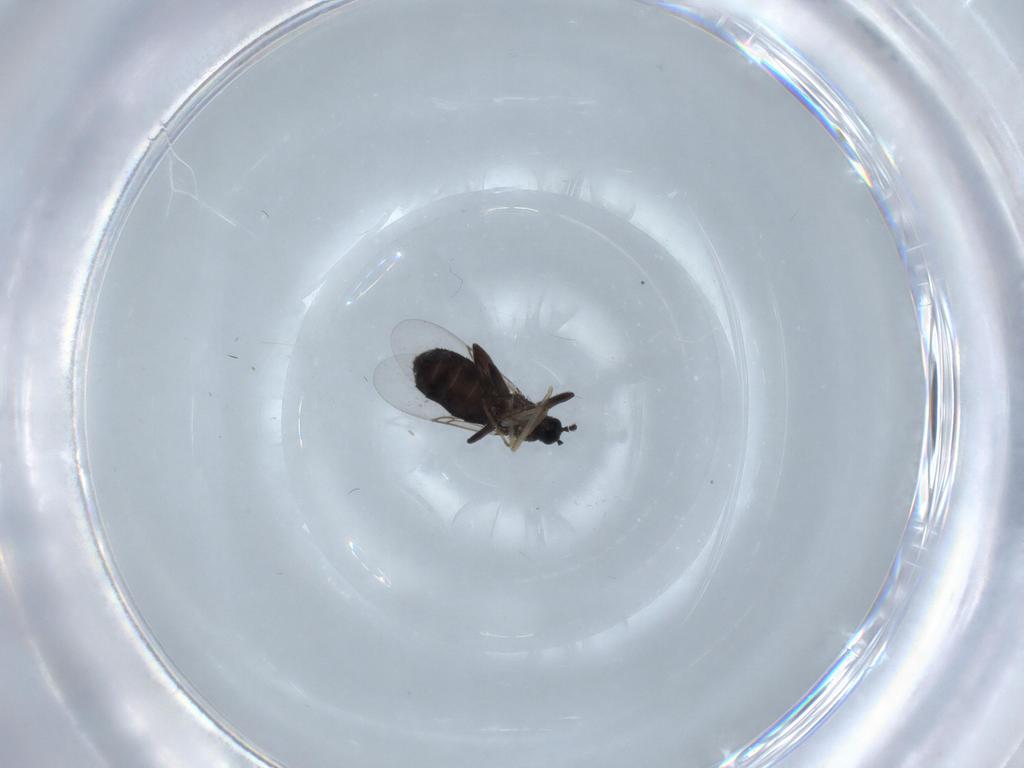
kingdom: Animalia
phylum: Arthropoda
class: Insecta
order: Diptera
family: Scatopsidae
